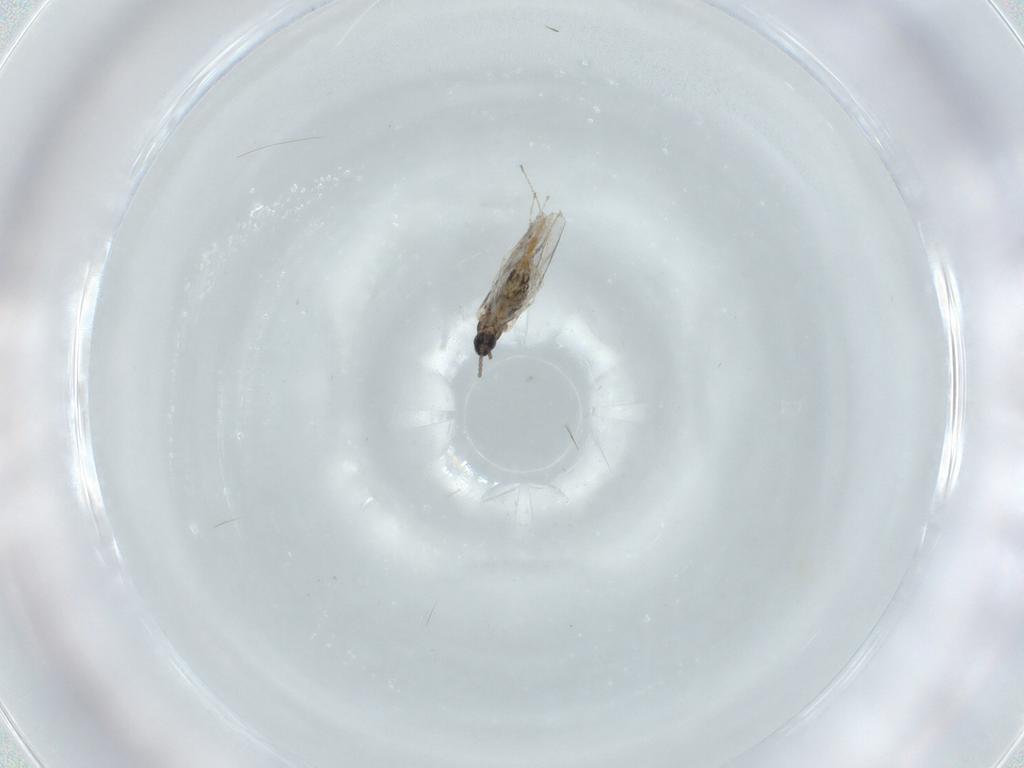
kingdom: Animalia
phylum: Arthropoda
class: Insecta
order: Diptera
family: Cecidomyiidae
